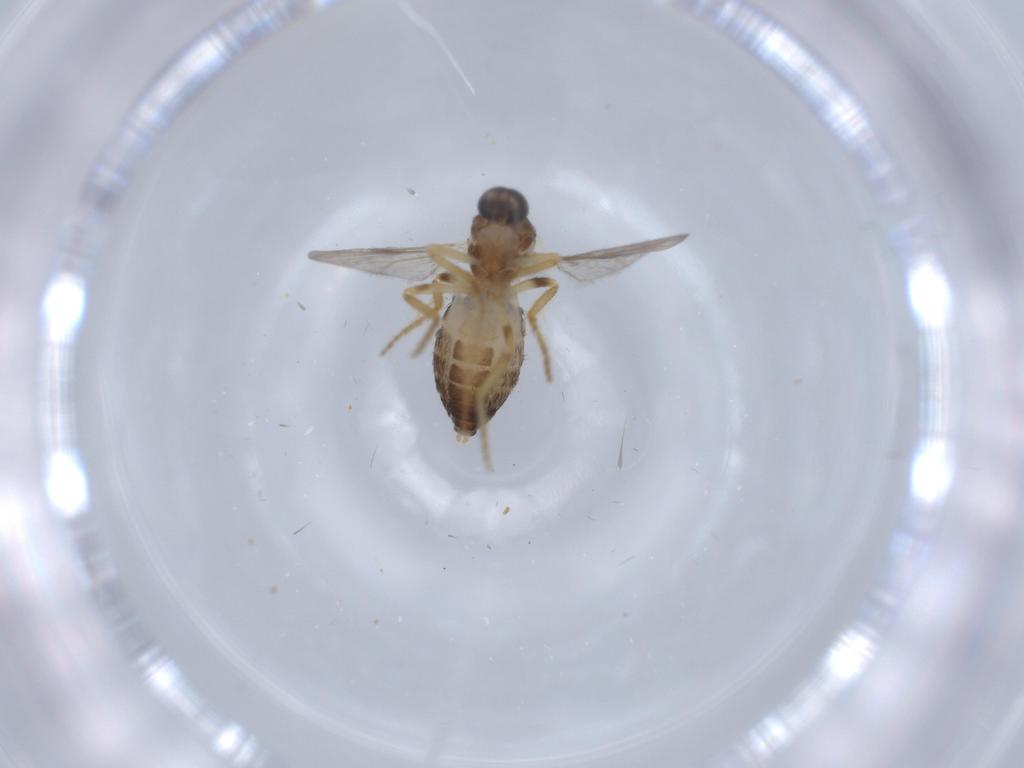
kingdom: Animalia
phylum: Arthropoda
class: Insecta
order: Diptera
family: Ceratopogonidae
